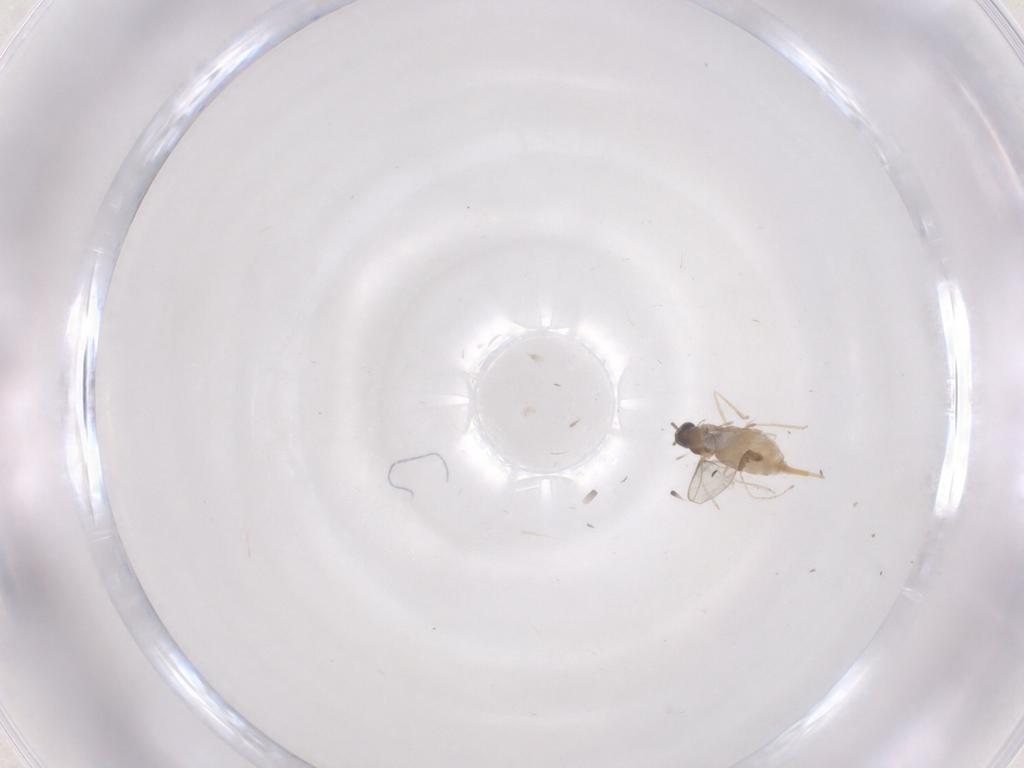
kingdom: Animalia
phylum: Arthropoda
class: Insecta
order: Diptera
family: Cecidomyiidae
